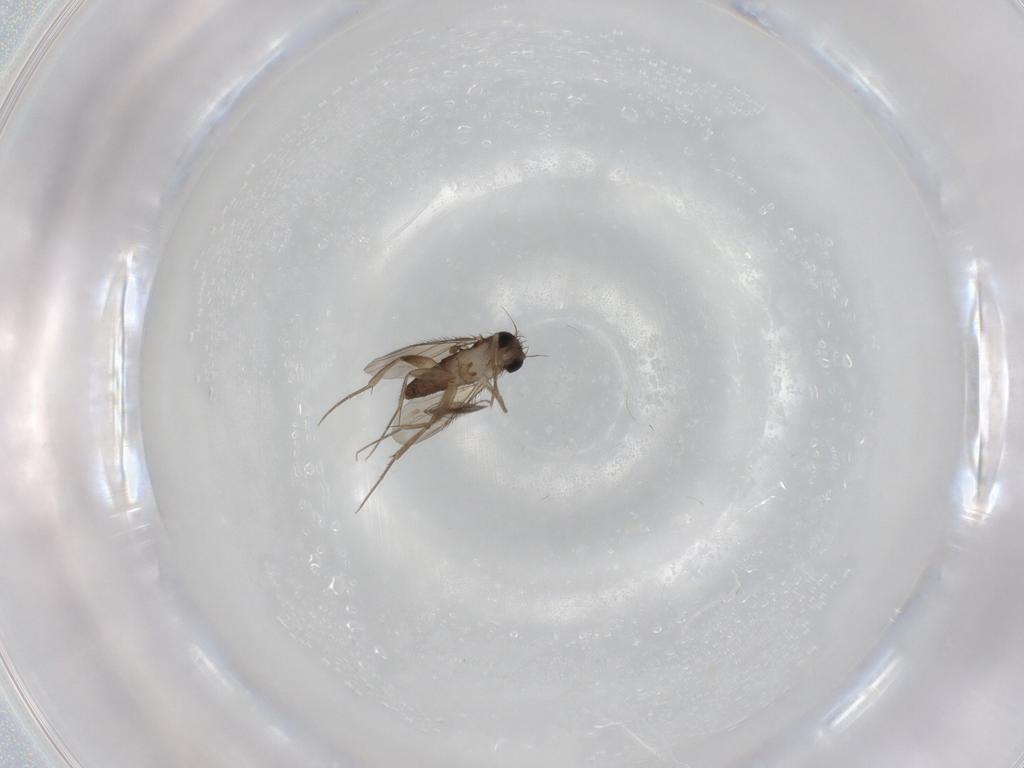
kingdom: Animalia
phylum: Arthropoda
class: Insecta
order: Diptera
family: Phoridae
